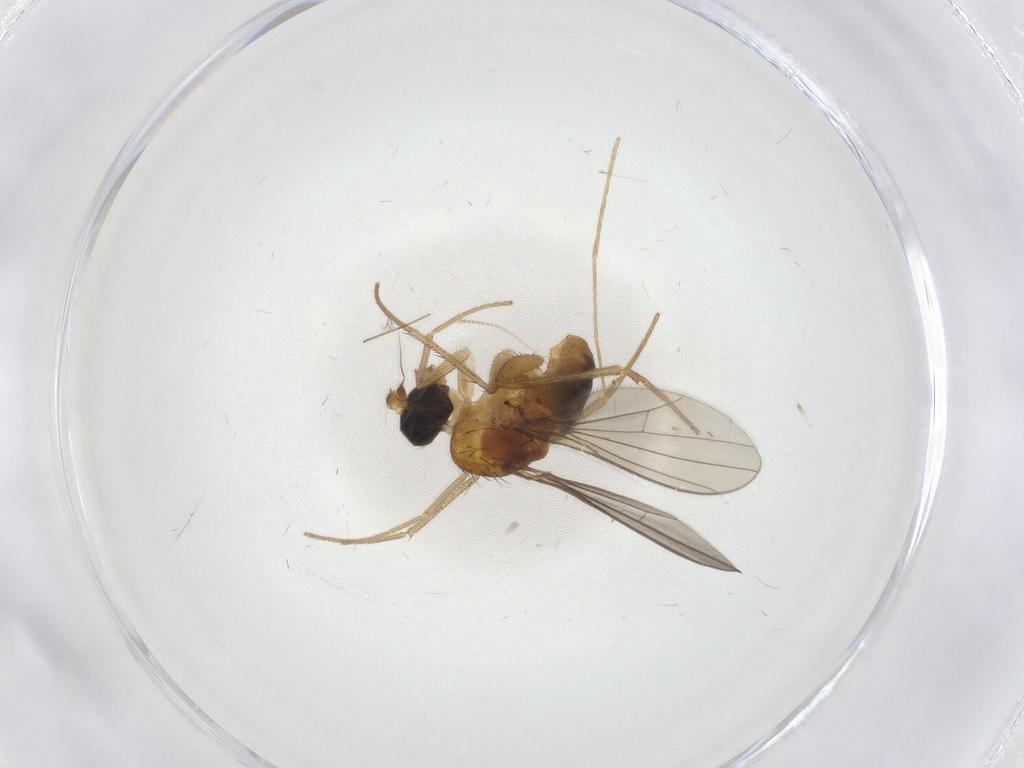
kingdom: Animalia
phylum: Arthropoda
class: Insecta
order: Diptera
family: Dolichopodidae
